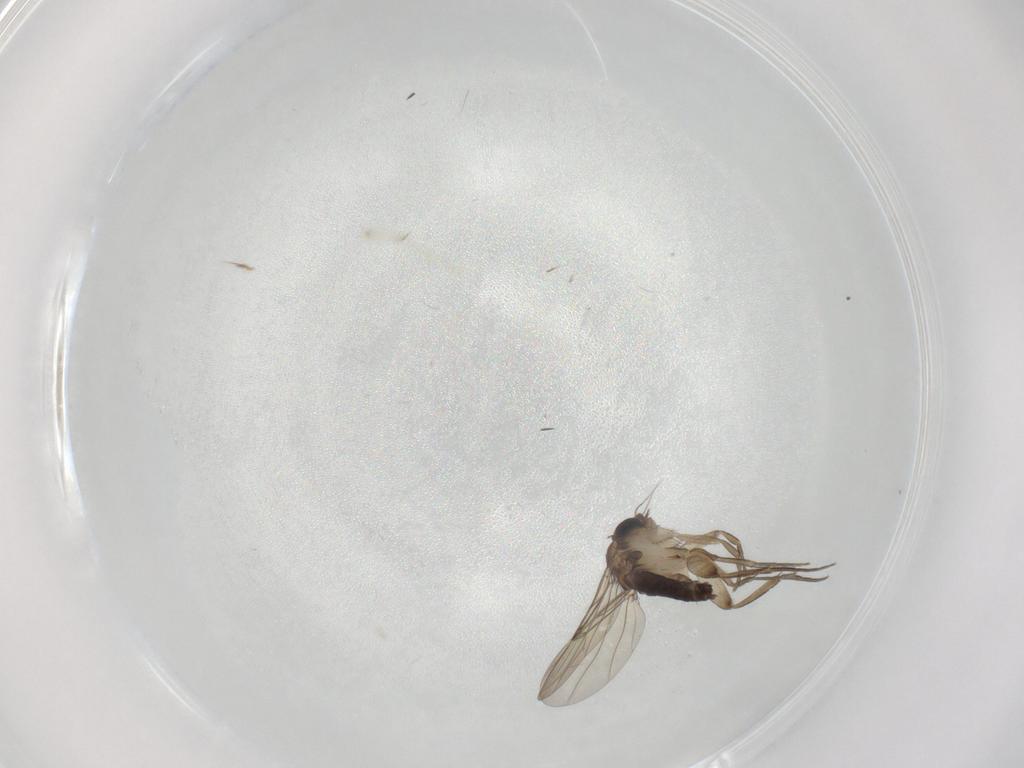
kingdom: Animalia
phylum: Arthropoda
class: Insecta
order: Diptera
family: Phoridae
